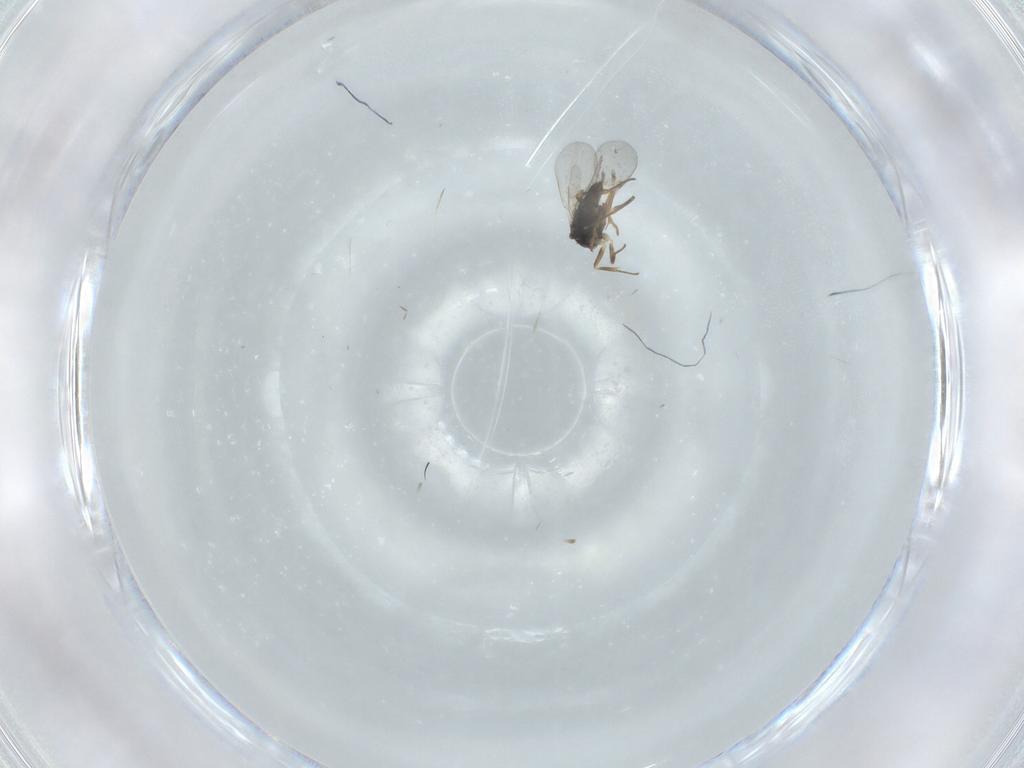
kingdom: Animalia
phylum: Arthropoda
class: Insecta
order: Hymenoptera
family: Encyrtidae
